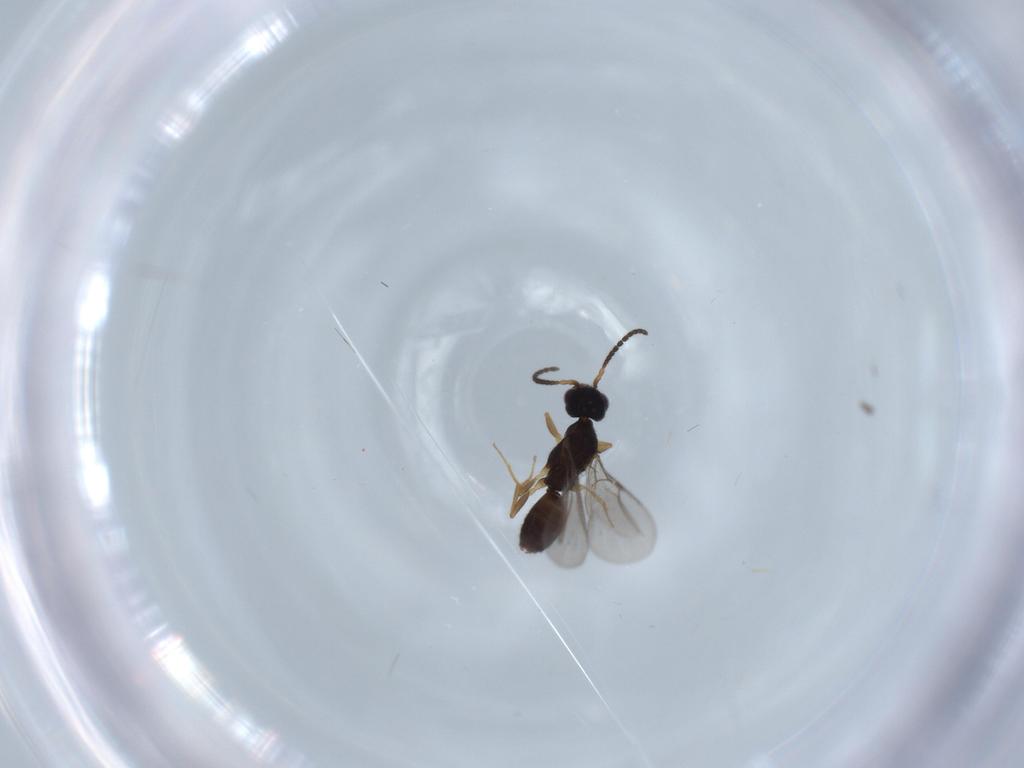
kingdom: Animalia
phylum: Arthropoda
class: Insecta
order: Hymenoptera
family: Bethylidae
